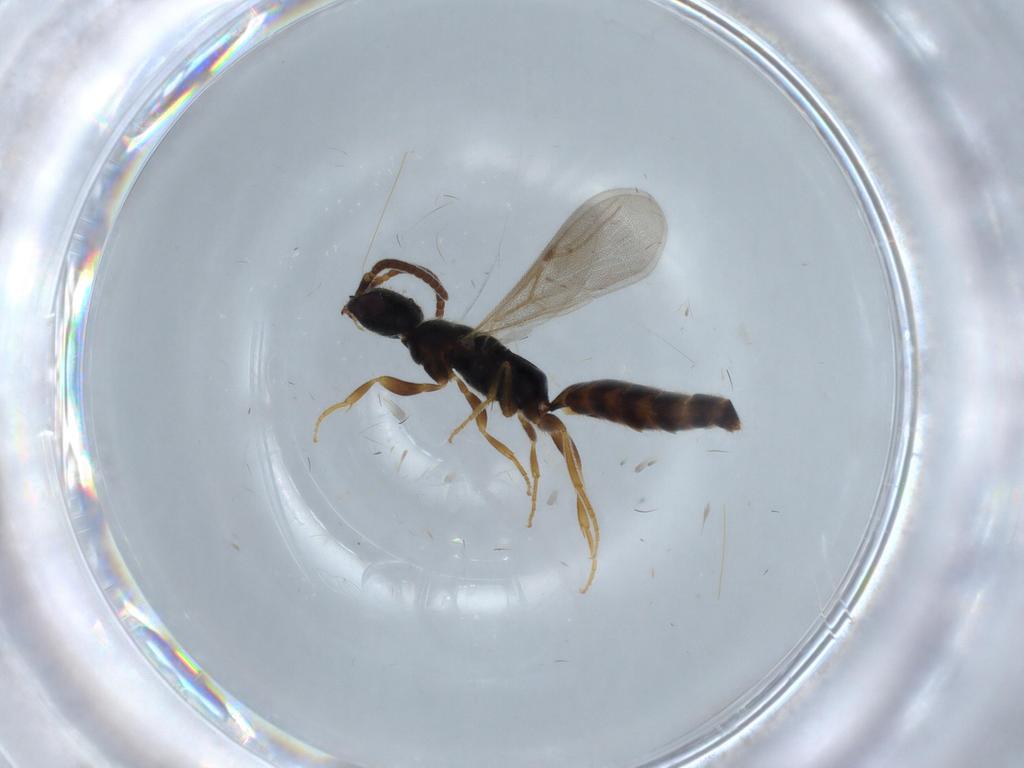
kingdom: Animalia
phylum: Arthropoda
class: Insecta
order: Hymenoptera
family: Bethylidae
